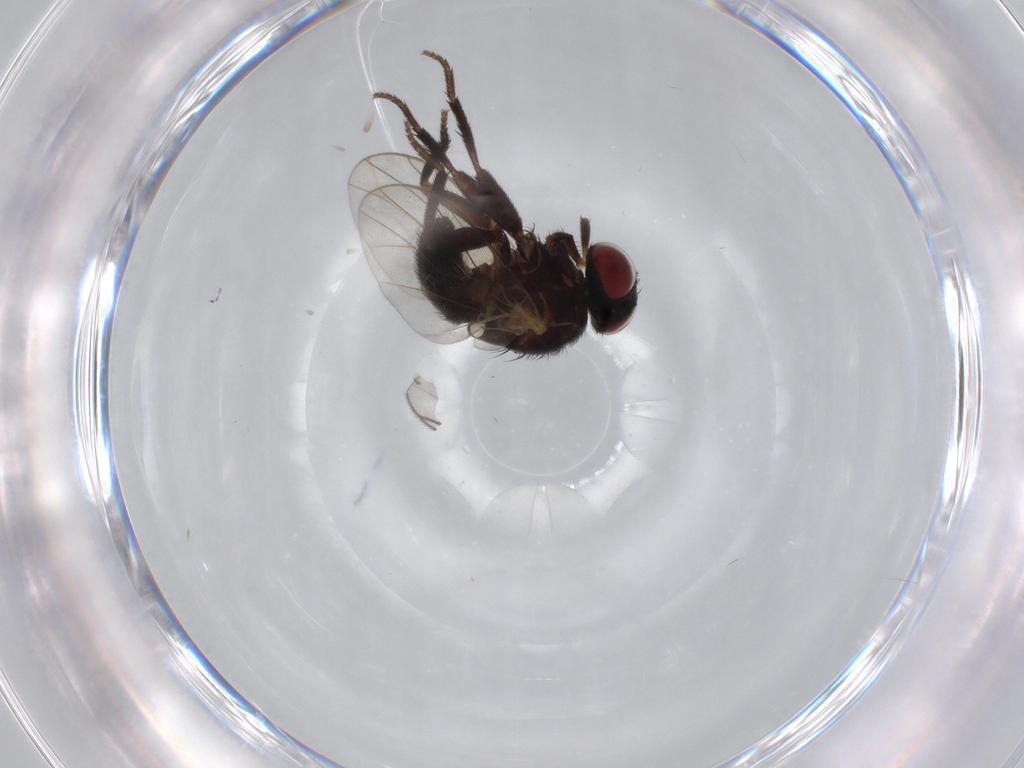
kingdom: Animalia
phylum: Arthropoda
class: Insecta
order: Diptera
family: Agromyzidae
